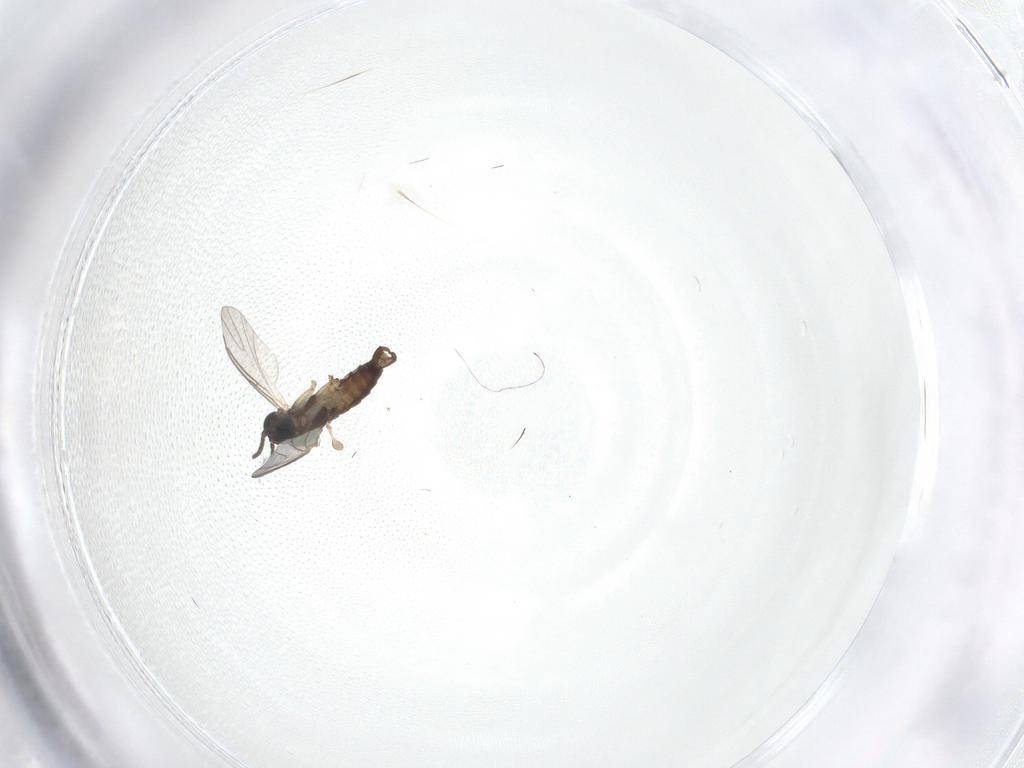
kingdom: Animalia
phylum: Arthropoda
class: Insecta
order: Diptera
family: Sciaridae
